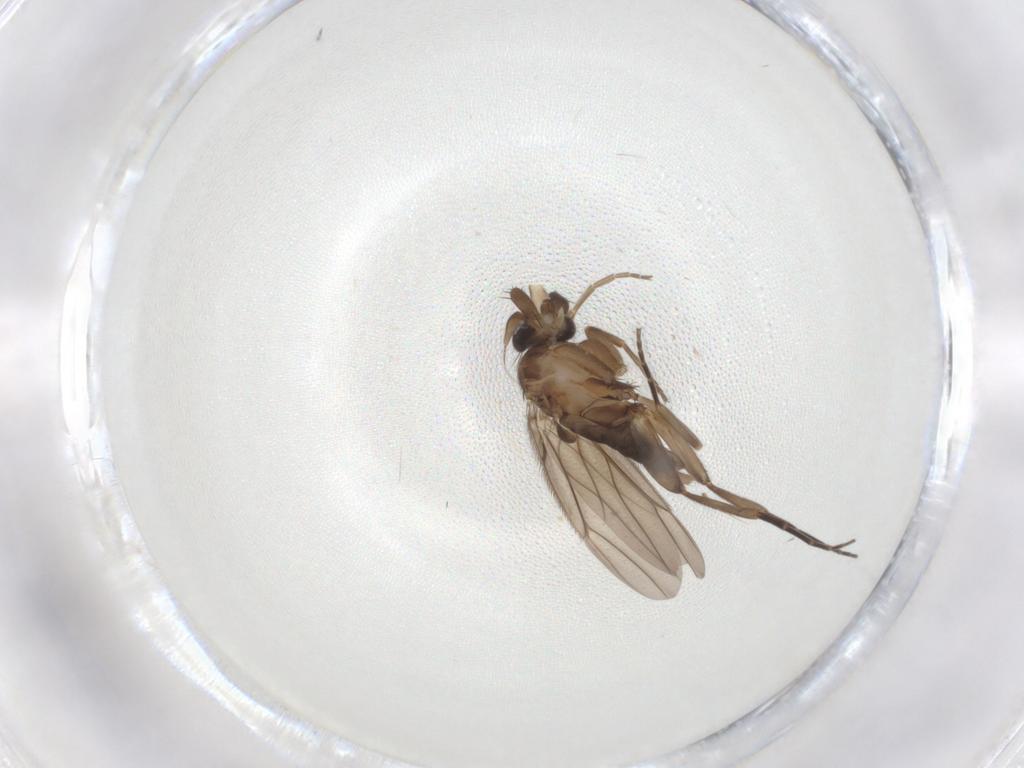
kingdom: Animalia
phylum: Arthropoda
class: Insecta
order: Diptera
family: Phoridae
